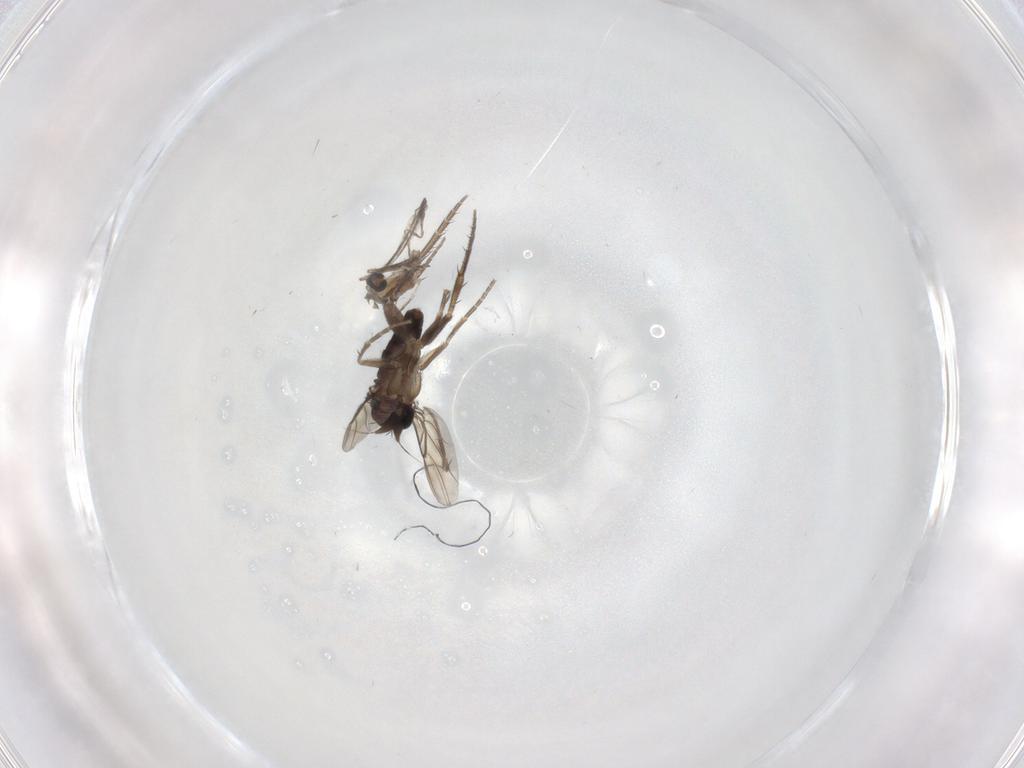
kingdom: Animalia
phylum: Arthropoda
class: Insecta
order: Diptera
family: Cecidomyiidae
